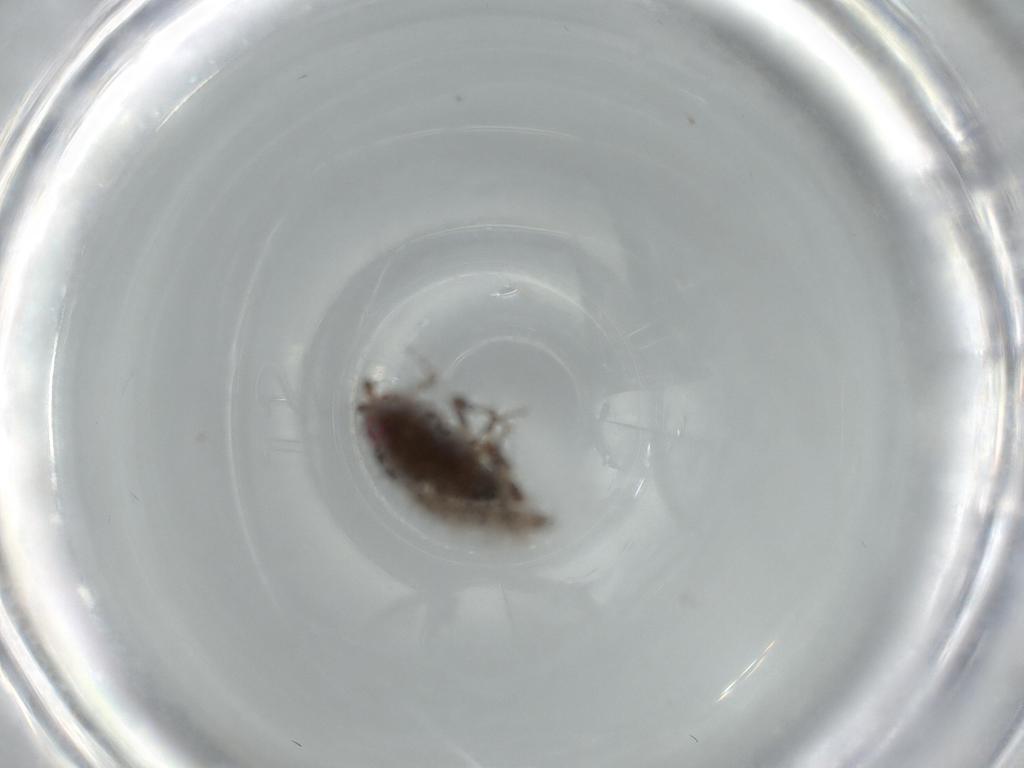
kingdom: Animalia
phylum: Arthropoda
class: Insecta
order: Diptera
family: Sphaeroceridae
